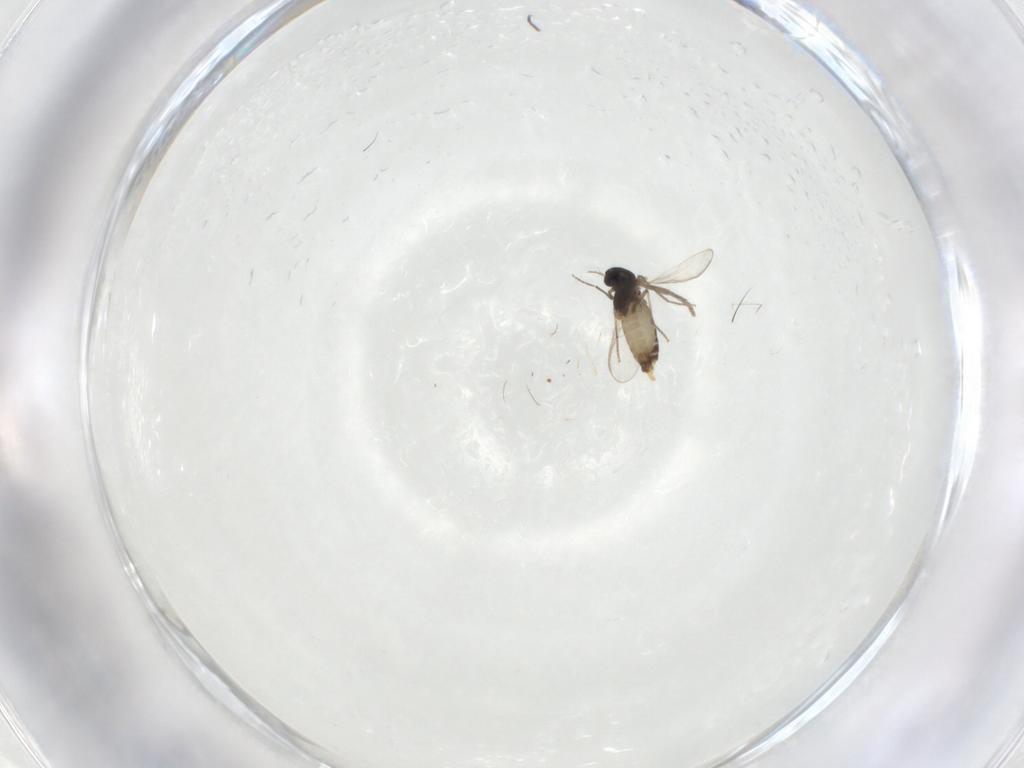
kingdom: Animalia
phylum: Arthropoda
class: Insecta
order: Diptera
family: Chironomidae
